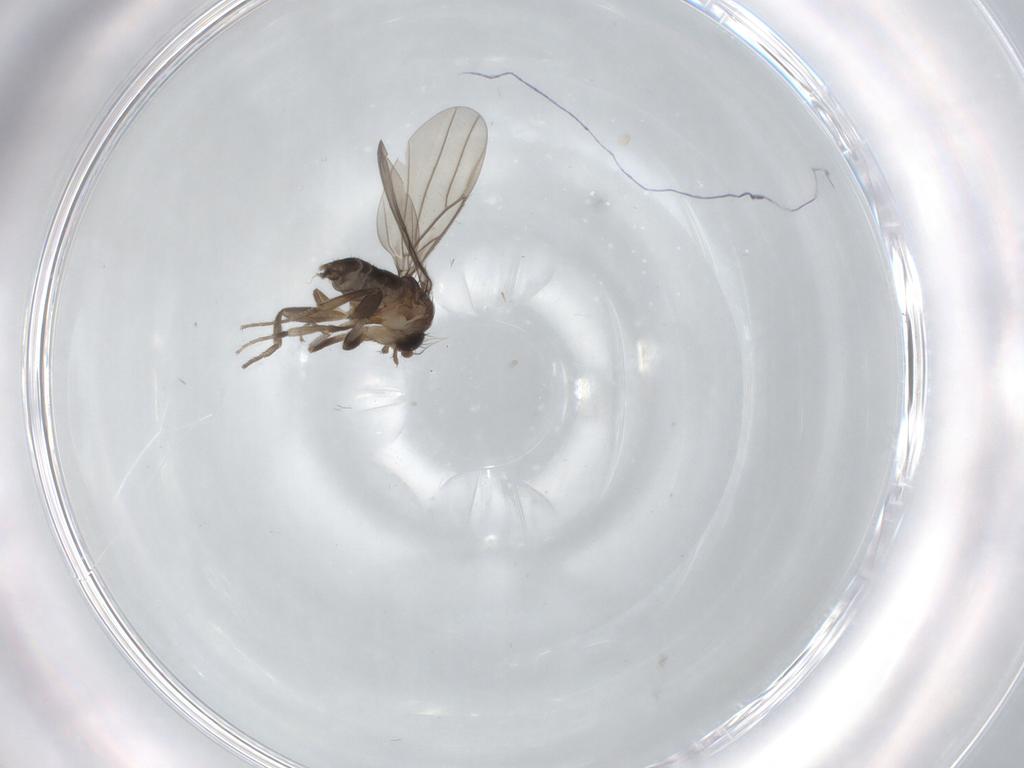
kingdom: Animalia
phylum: Arthropoda
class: Insecta
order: Diptera
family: Phoridae
